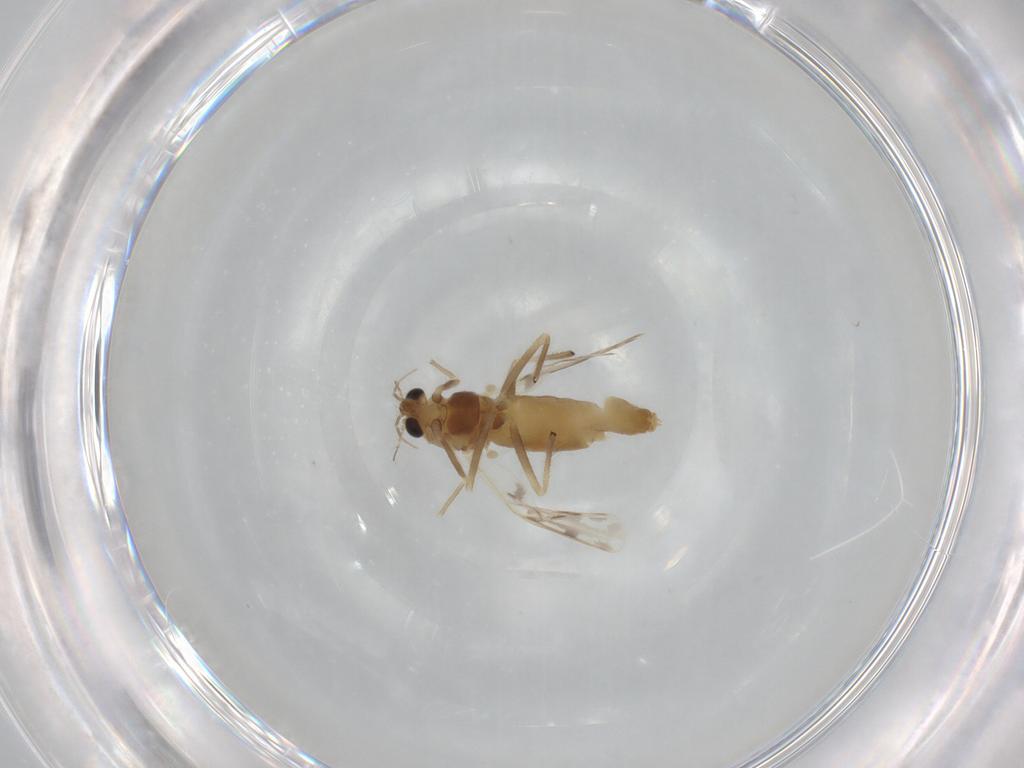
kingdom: Animalia
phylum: Arthropoda
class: Insecta
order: Diptera
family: Chironomidae
